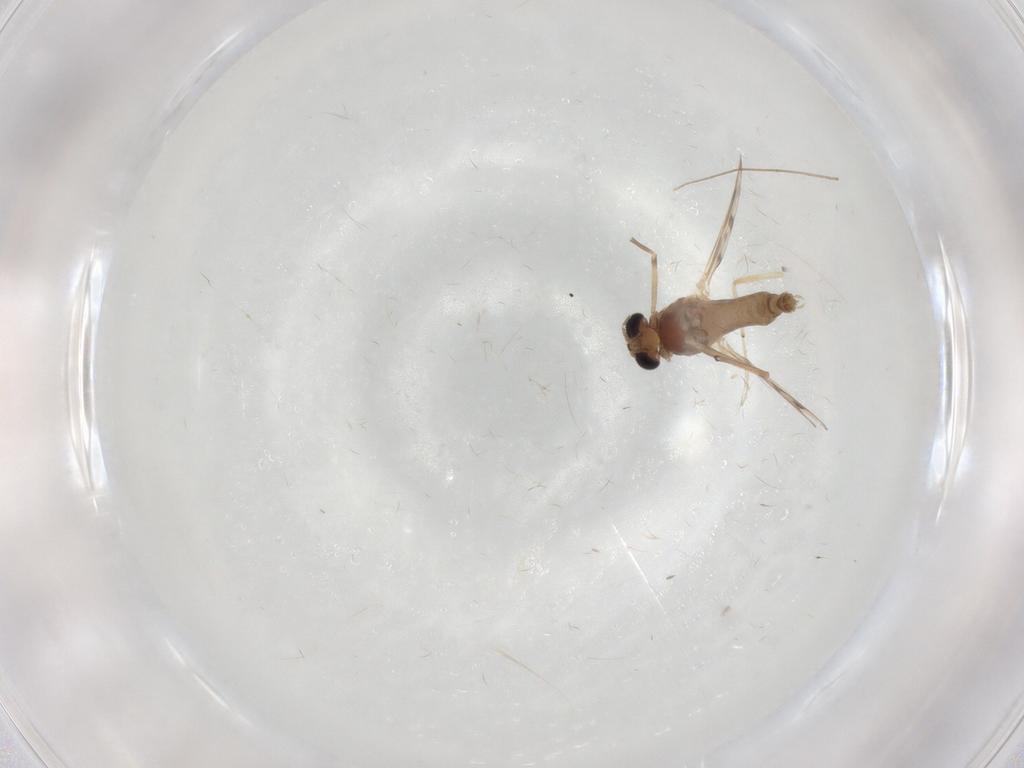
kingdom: Animalia
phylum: Arthropoda
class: Insecta
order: Diptera
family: Chironomidae
